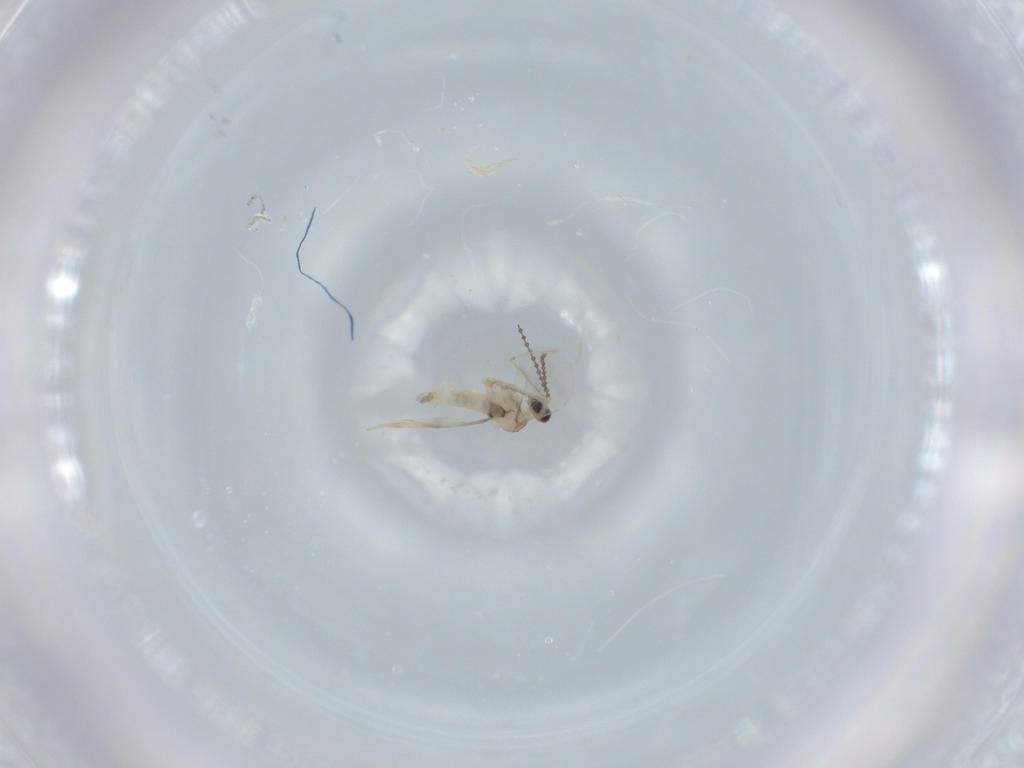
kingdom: Animalia
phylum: Arthropoda
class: Insecta
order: Diptera
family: Cecidomyiidae
